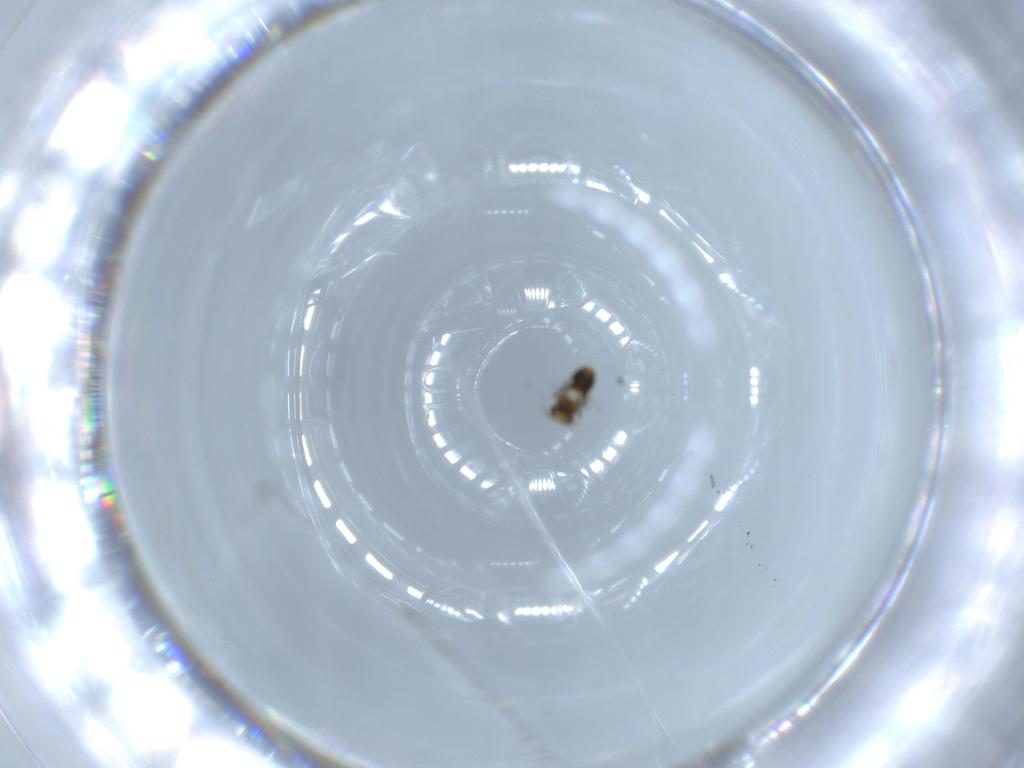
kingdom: Animalia
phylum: Arthropoda
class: Insecta
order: Hymenoptera
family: Aphelinidae
